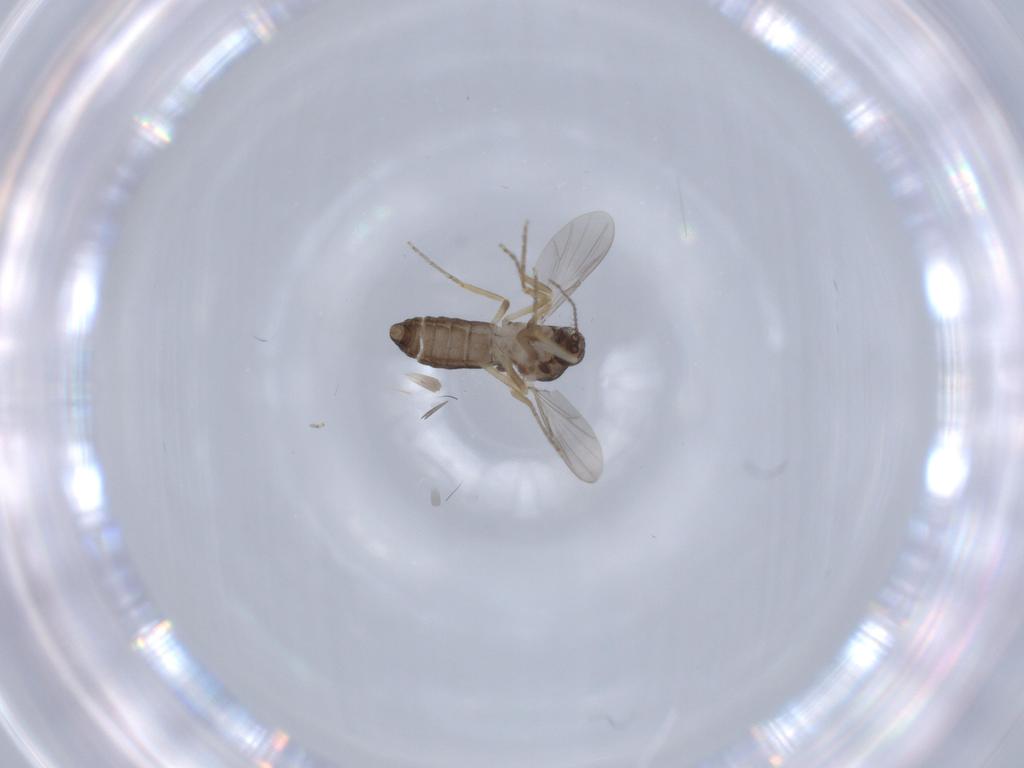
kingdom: Animalia
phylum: Arthropoda
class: Insecta
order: Diptera
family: Ceratopogonidae
